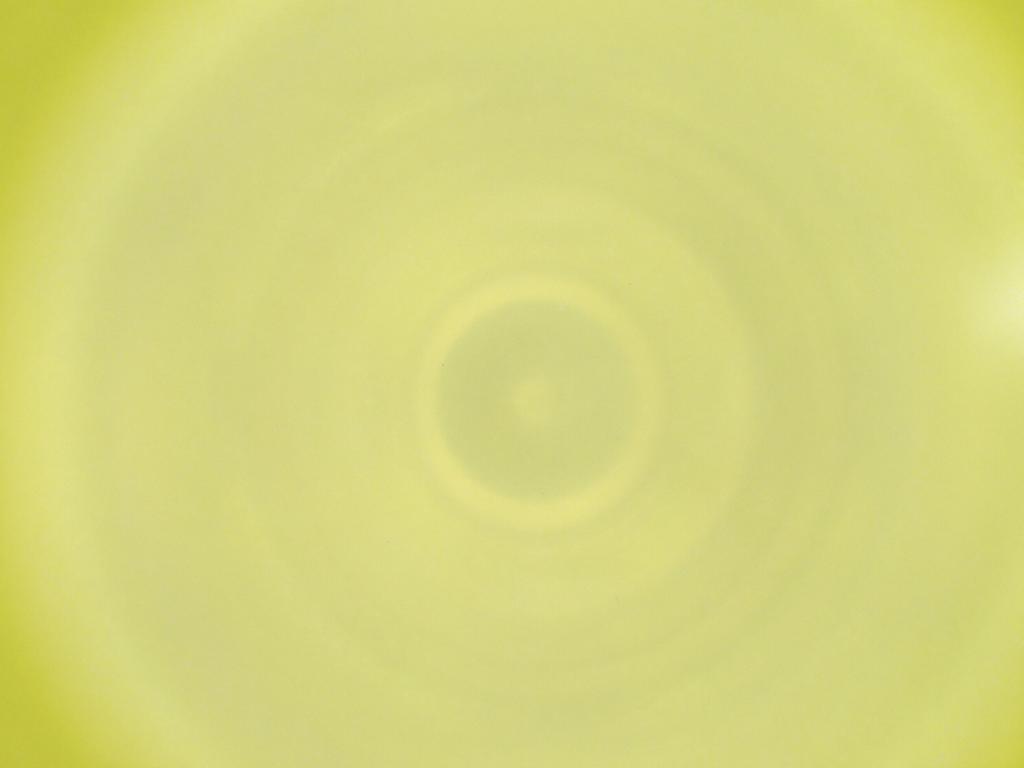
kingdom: Animalia
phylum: Arthropoda
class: Insecta
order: Diptera
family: Cecidomyiidae
